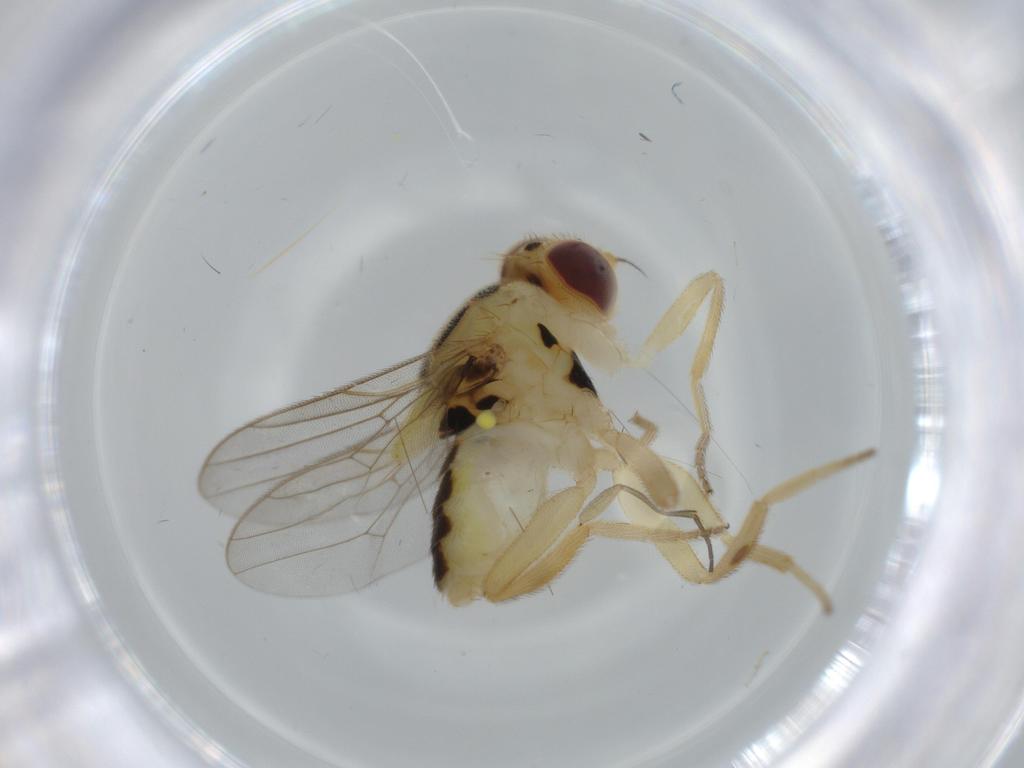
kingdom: Animalia
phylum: Arthropoda
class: Insecta
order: Diptera
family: Chloropidae
